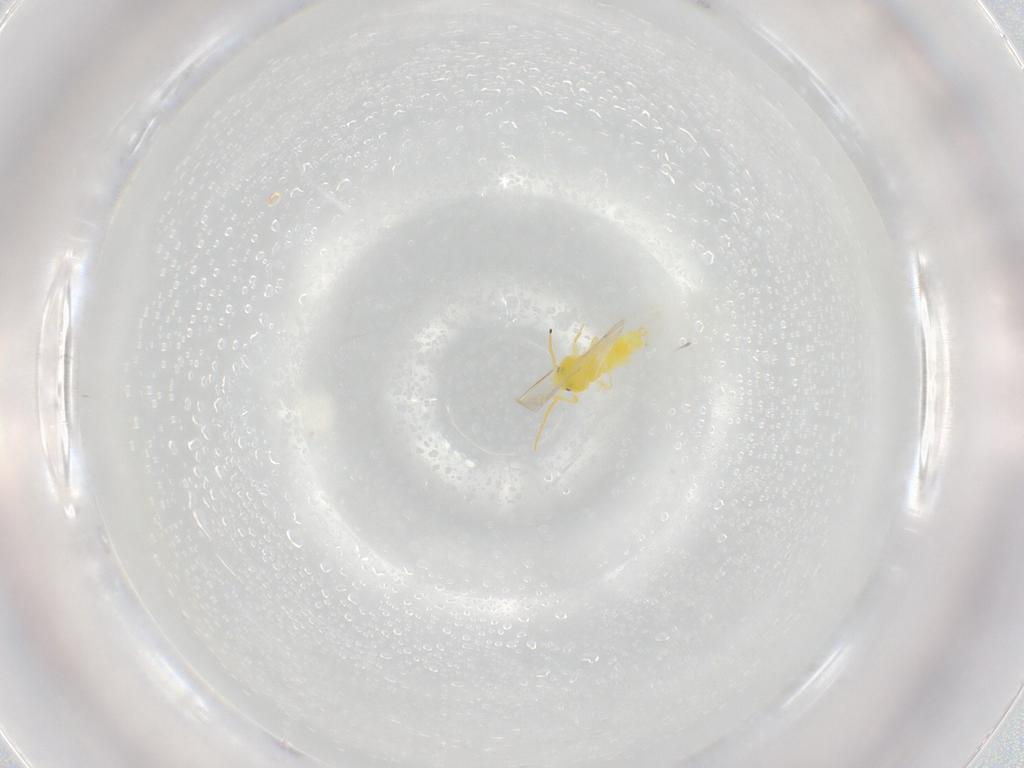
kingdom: Animalia
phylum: Arthropoda
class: Insecta
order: Hemiptera
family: Aleyrodidae
